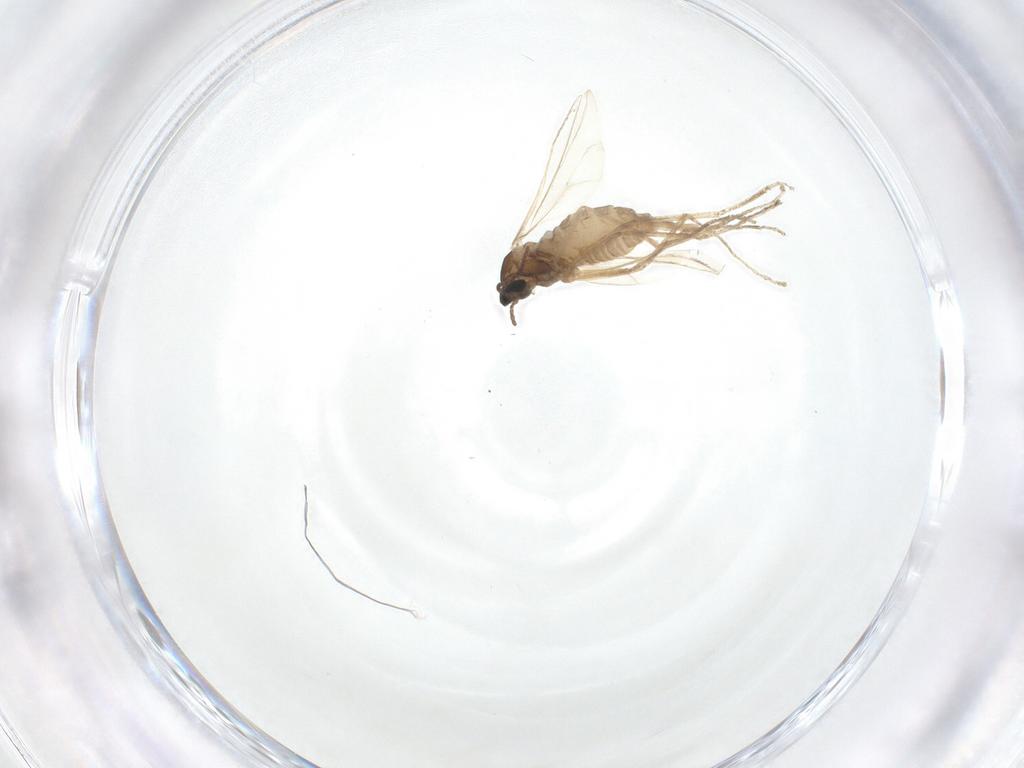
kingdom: Animalia
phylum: Arthropoda
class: Insecta
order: Diptera
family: Cecidomyiidae
